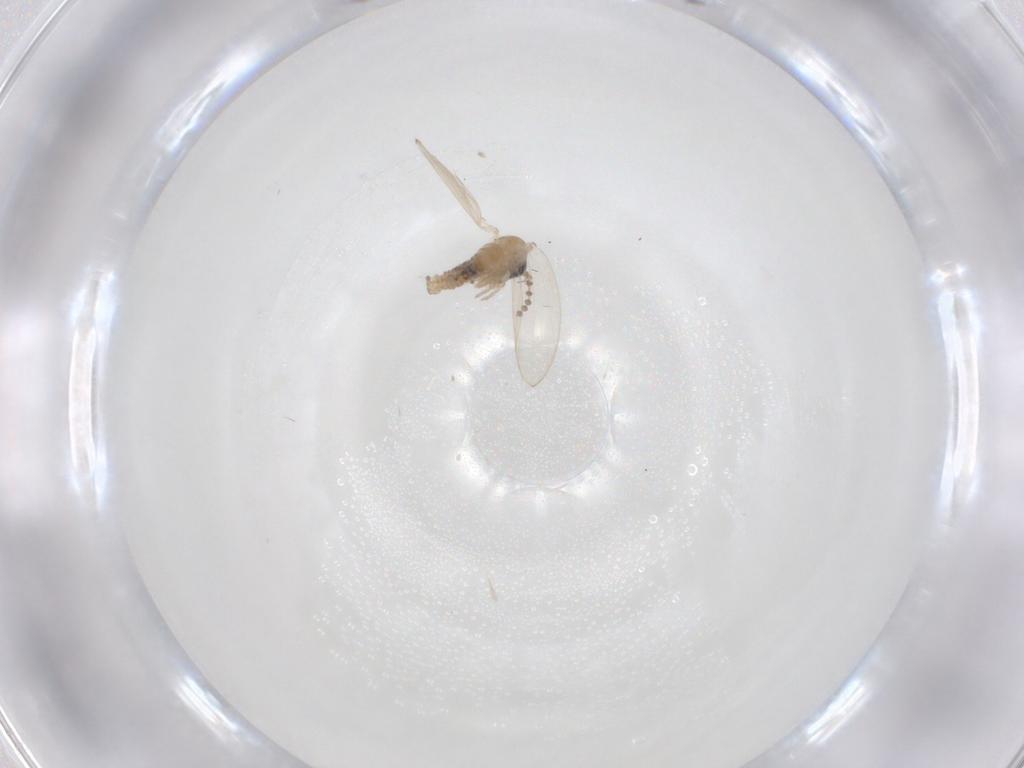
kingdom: Animalia
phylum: Arthropoda
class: Insecta
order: Diptera
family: Psychodidae
